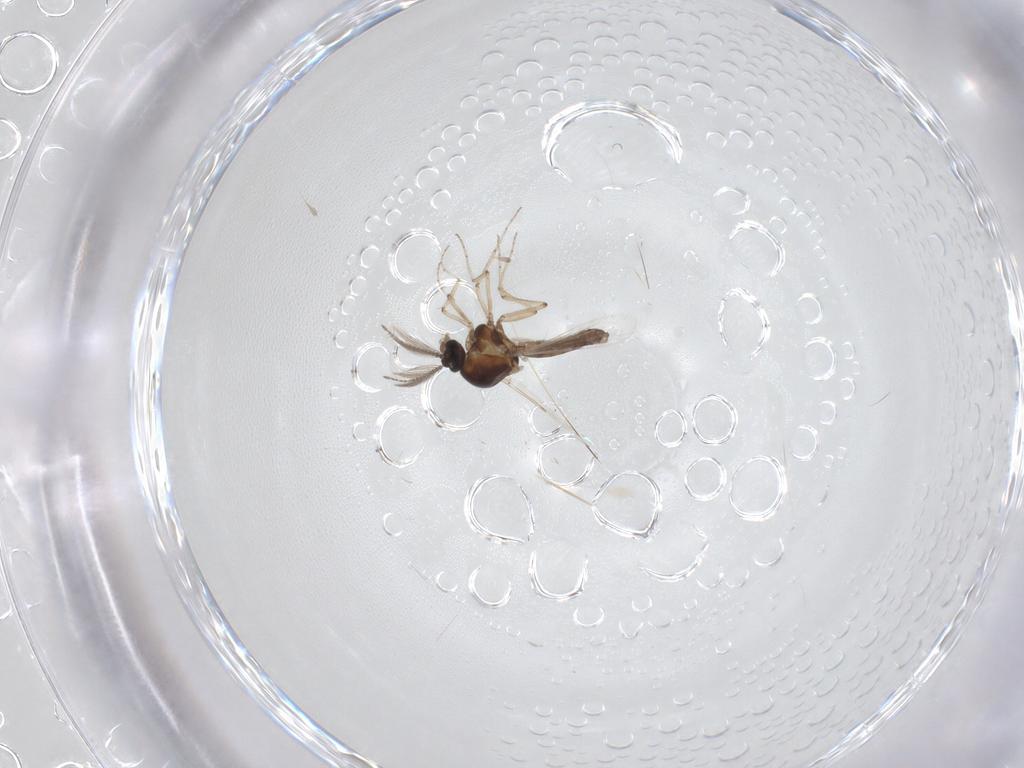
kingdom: Animalia
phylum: Arthropoda
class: Insecta
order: Diptera
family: Ceratopogonidae
